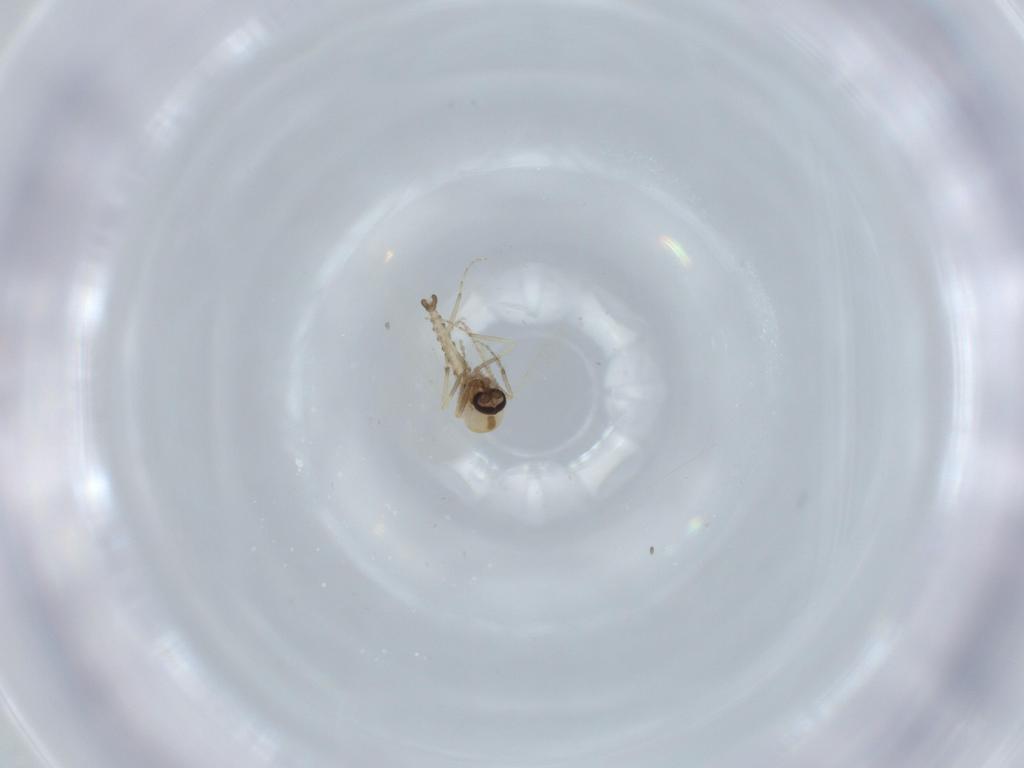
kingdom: Animalia
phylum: Arthropoda
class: Insecta
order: Diptera
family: Ceratopogonidae
